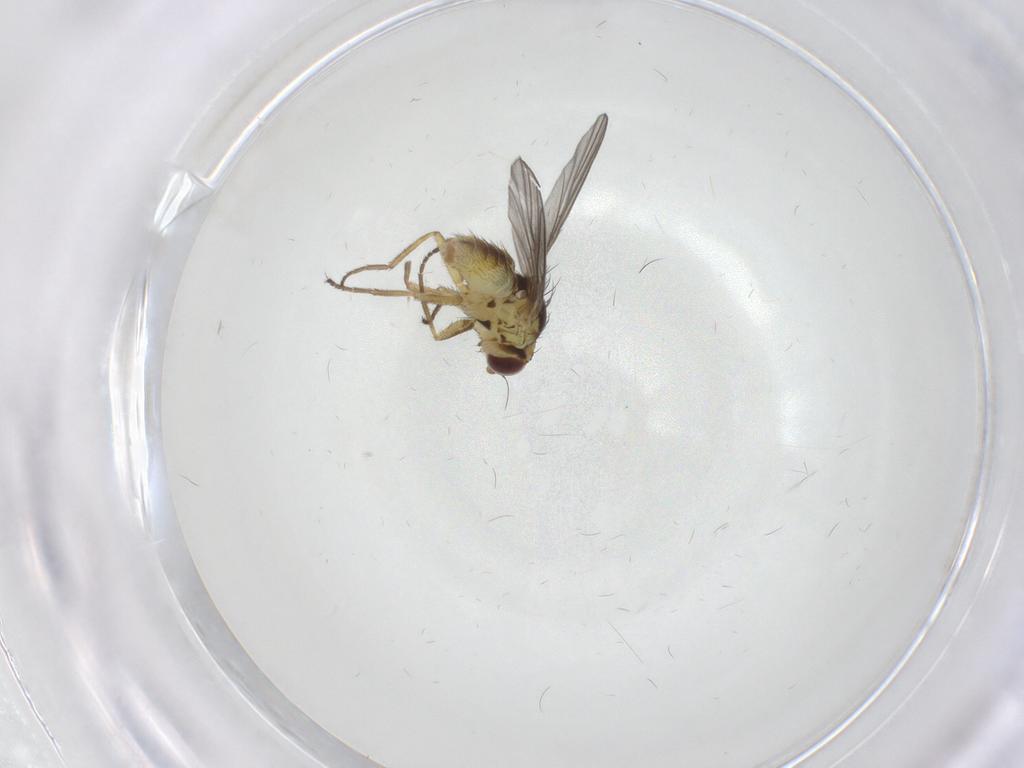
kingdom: Animalia
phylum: Arthropoda
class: Insecta
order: Diptera
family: Agromyzidae
